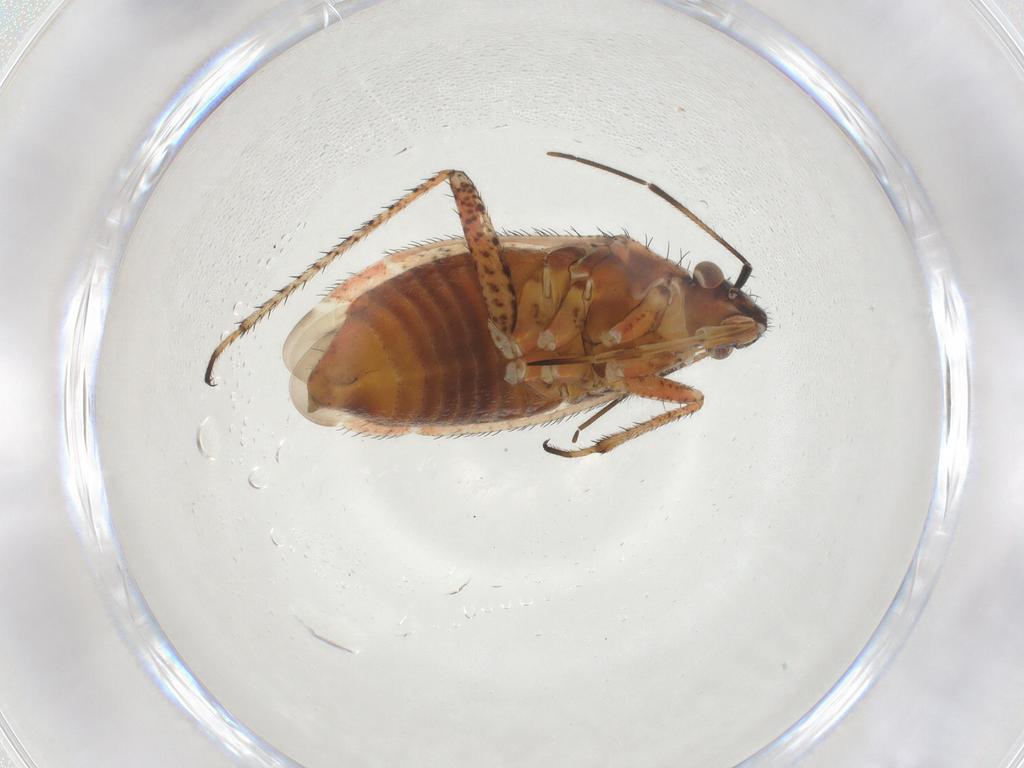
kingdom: Animalia
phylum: Arthropoda
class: Insecta
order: Hemiptera
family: Miridae
